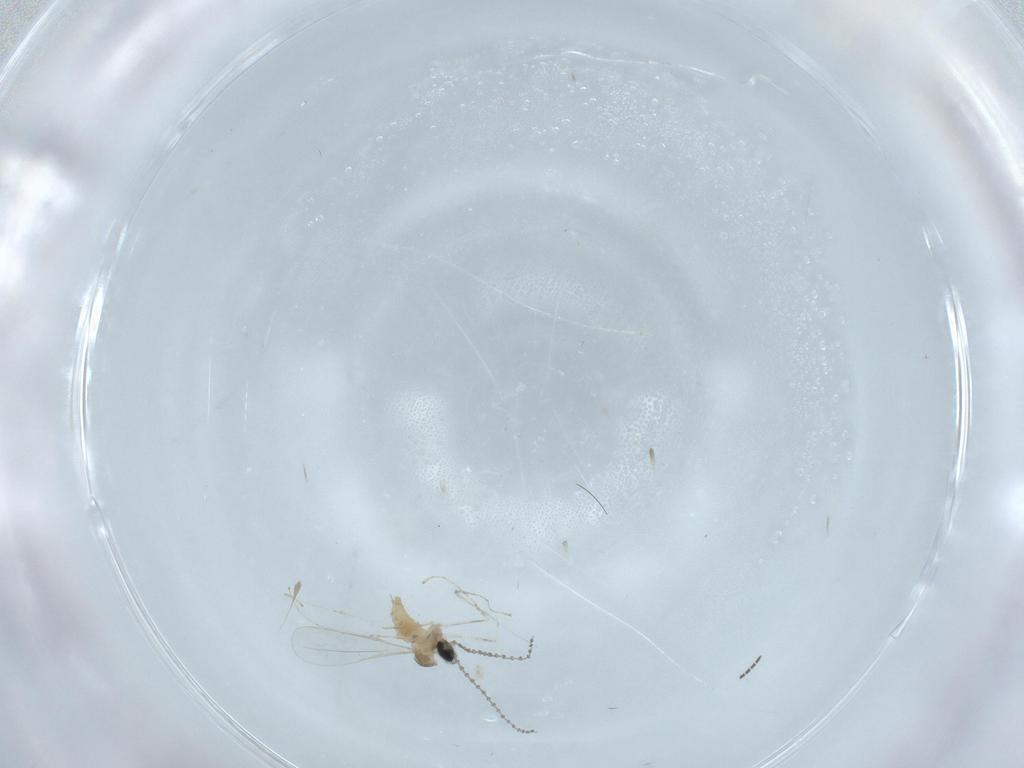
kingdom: Animalia
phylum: Arthropoda
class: Insecta
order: Diptera
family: Cecidomyiidae
